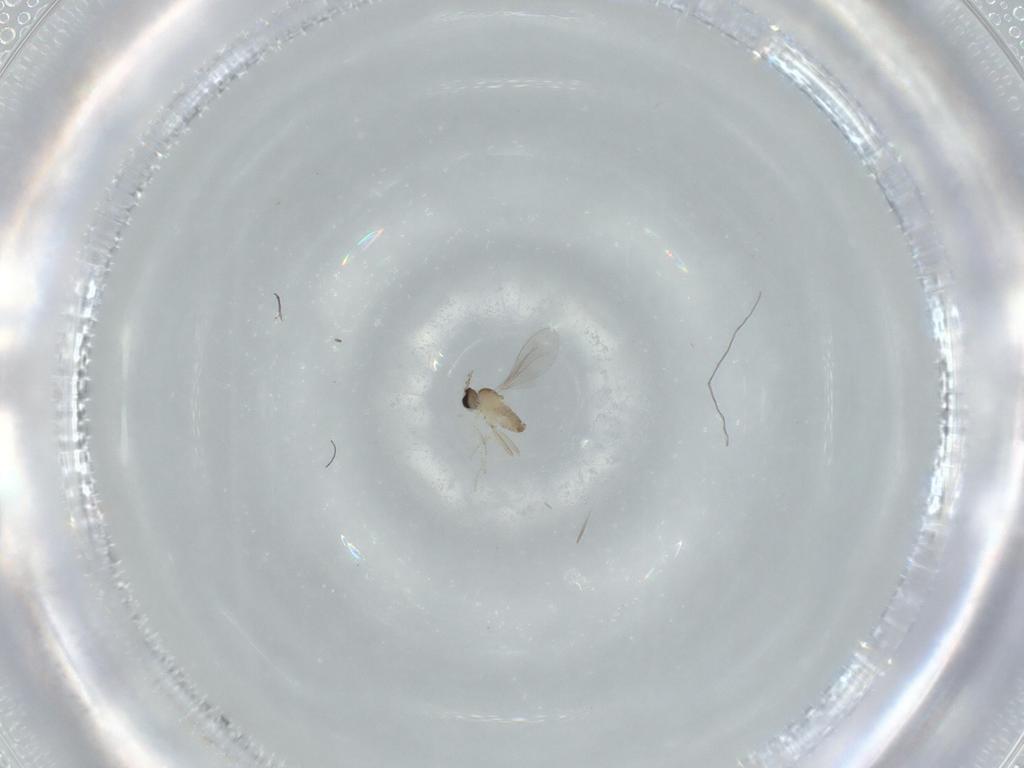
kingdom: Animalia
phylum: Arthropoda
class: Insecta
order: Diptera
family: Cecidomyiidae
